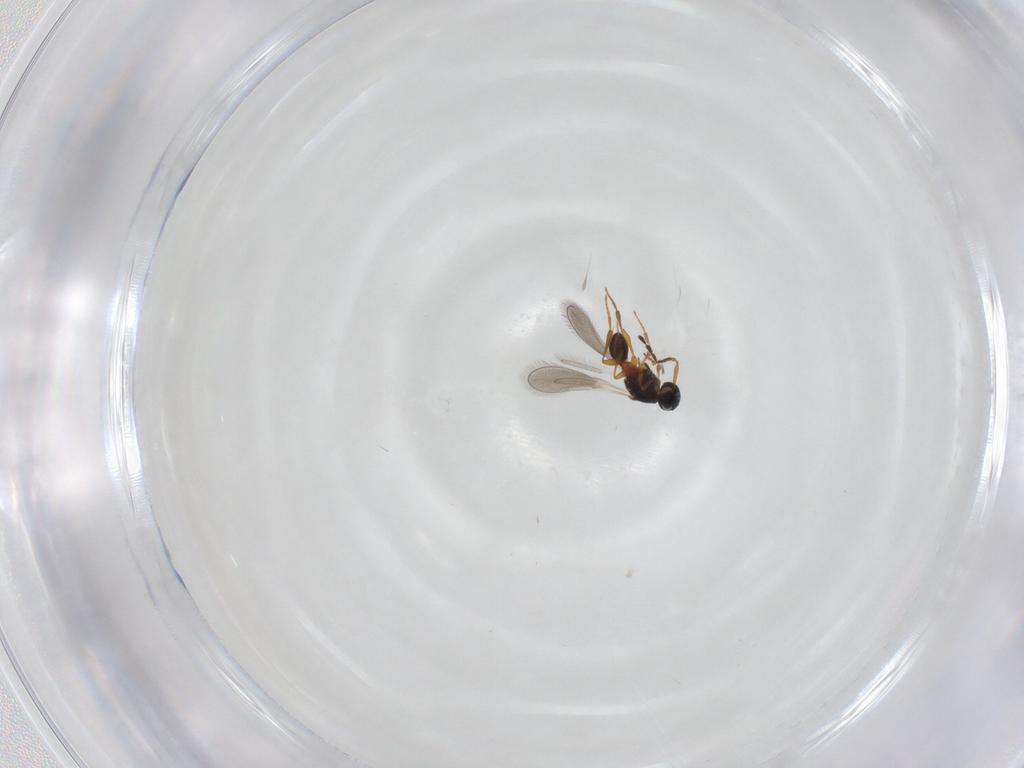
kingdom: Animalia
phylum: Arthropoda
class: Insecta
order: Hymenoptera
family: Platygastridae
